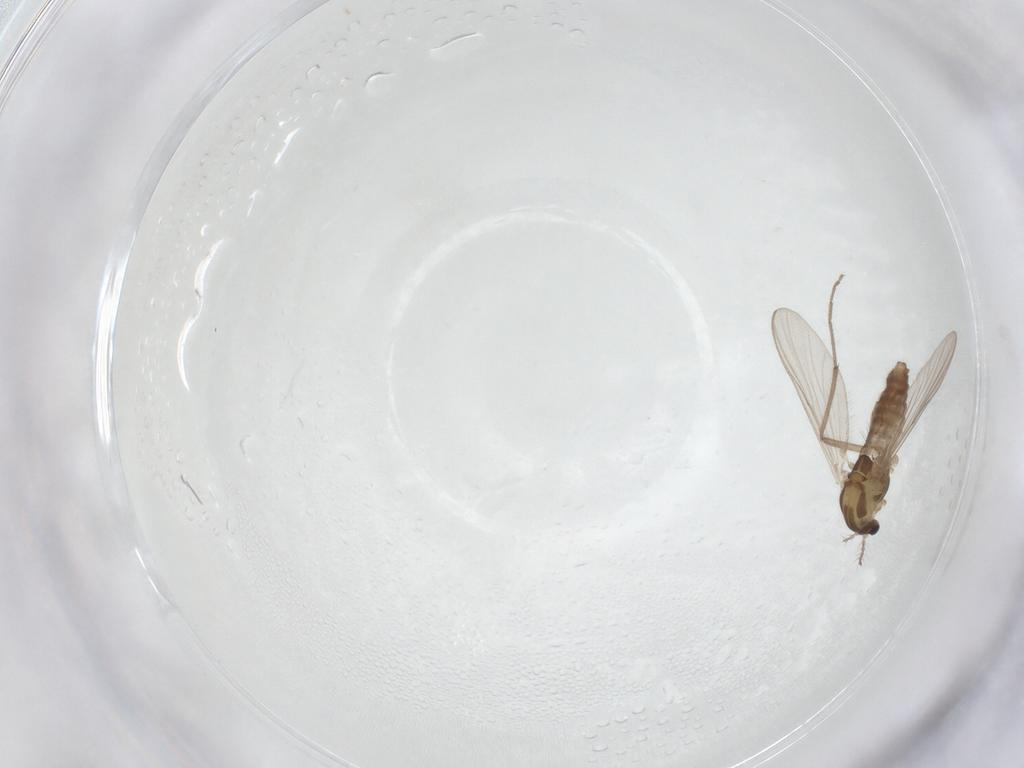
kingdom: Animalia
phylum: Arthropoda
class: Insecta
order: Diptera
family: Chironomidae
